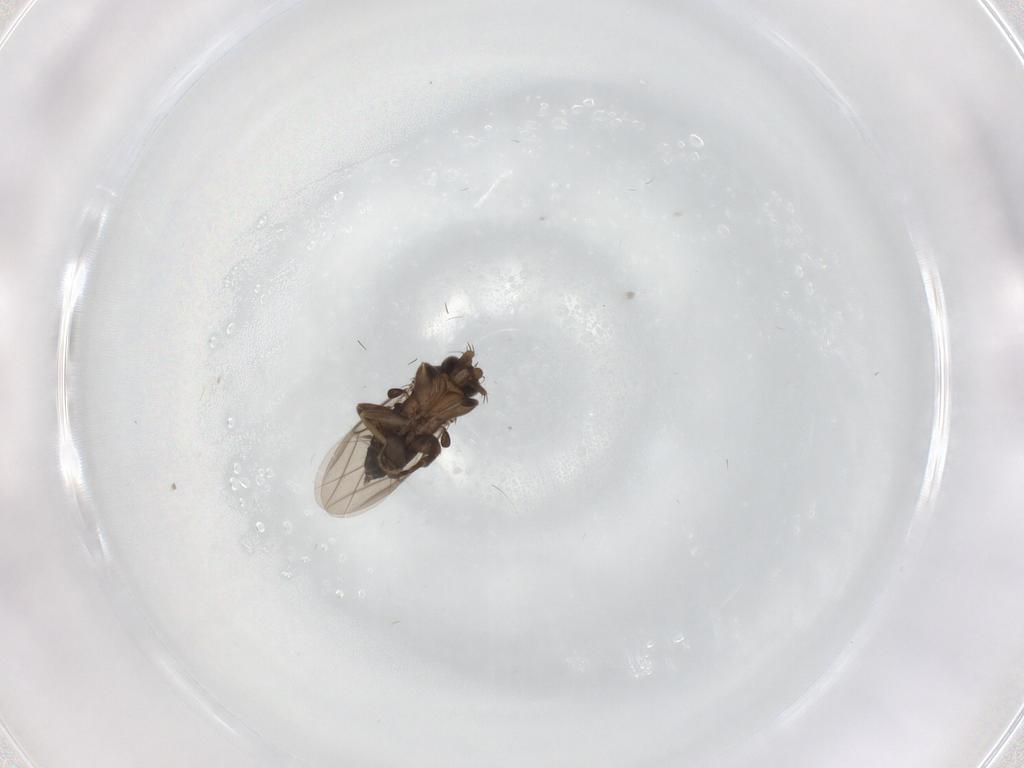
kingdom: Animalia
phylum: Arthropoda
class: Insecta
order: Diptera
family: Phoridae
